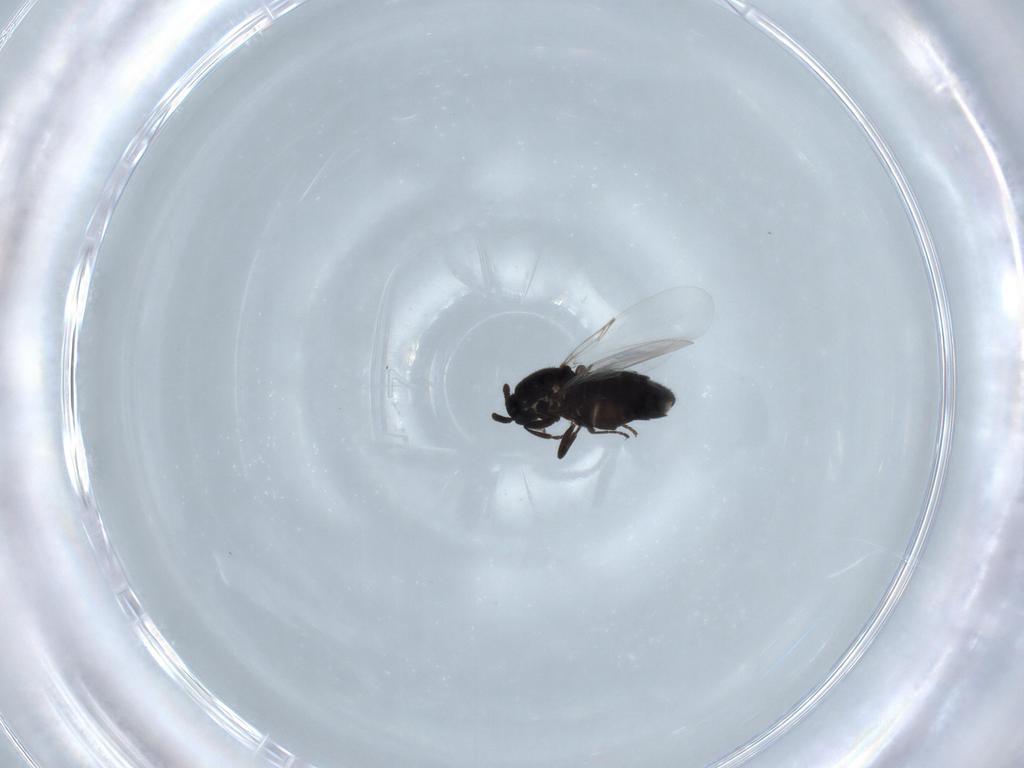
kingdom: Animalia
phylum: Arthropoda
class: Insecta
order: Diptera
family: Scatopsidae
